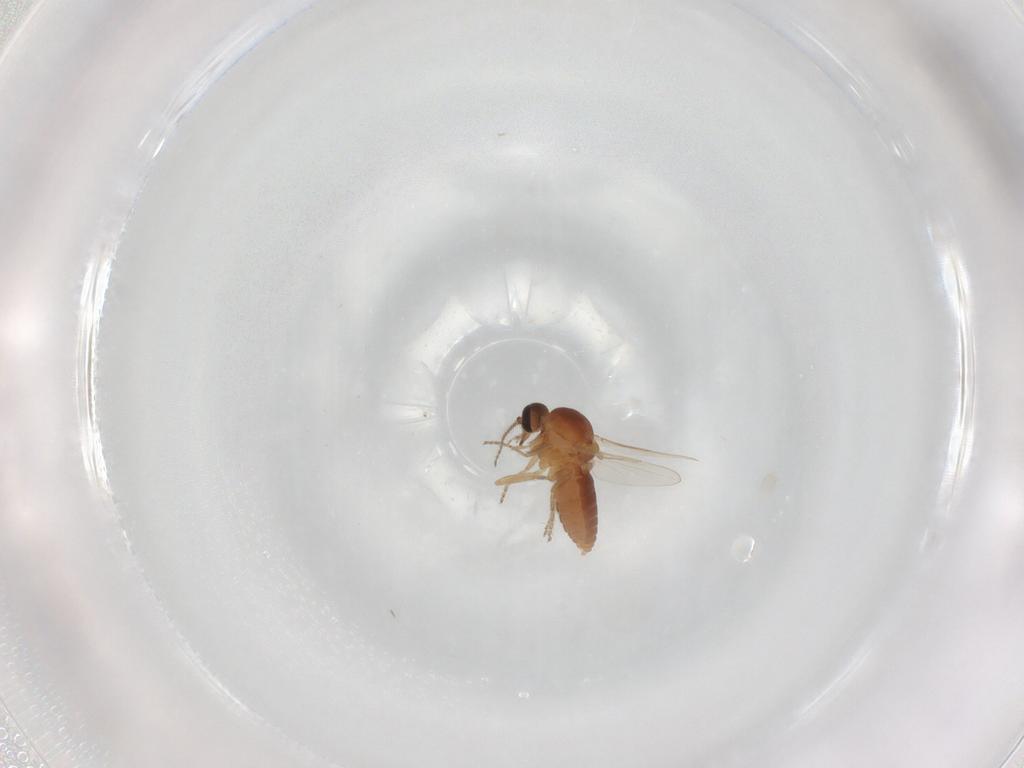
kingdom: Animalia
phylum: Arthropoda
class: Insecta
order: Diptera
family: Ceratopogonidae
